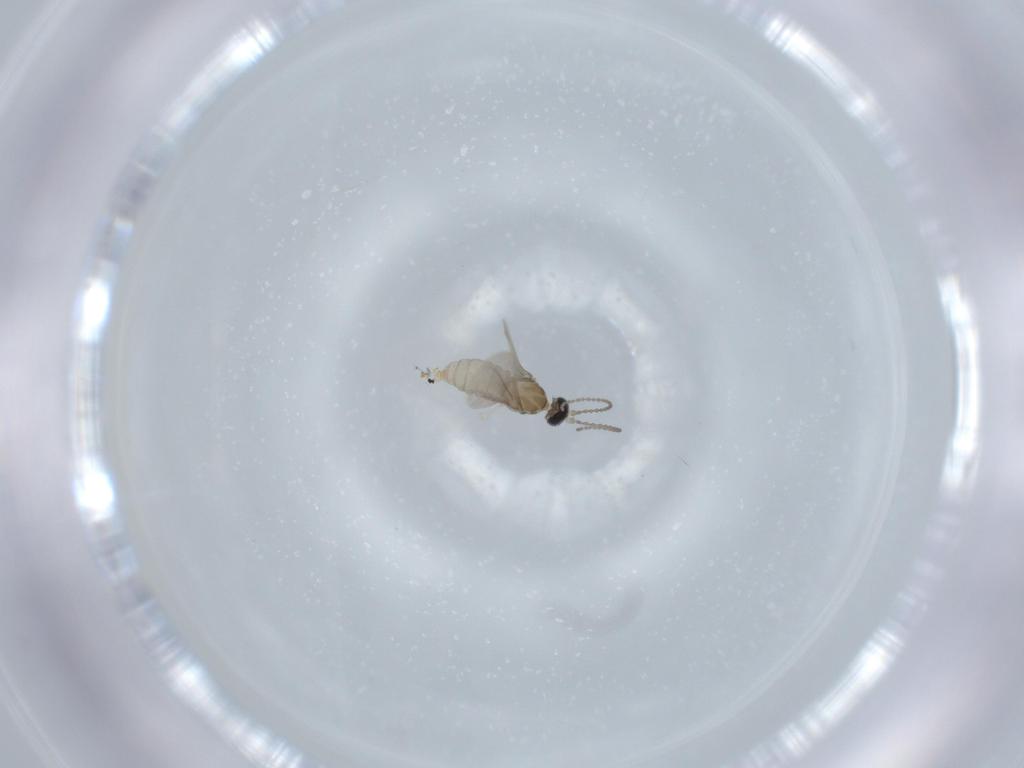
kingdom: Animalia
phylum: Arthropoda
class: Insecta
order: Diptera
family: Cecidomyiidae
